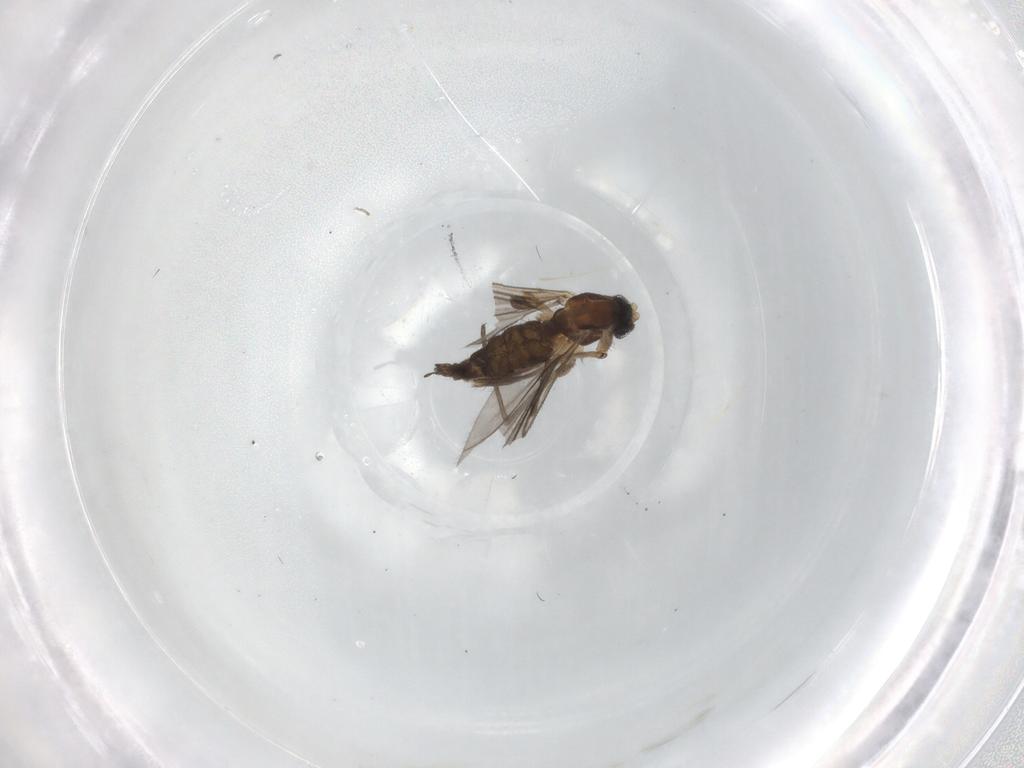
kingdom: Animalia
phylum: Arthropoda
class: Insecta
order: Diptera
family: Sciaridae
